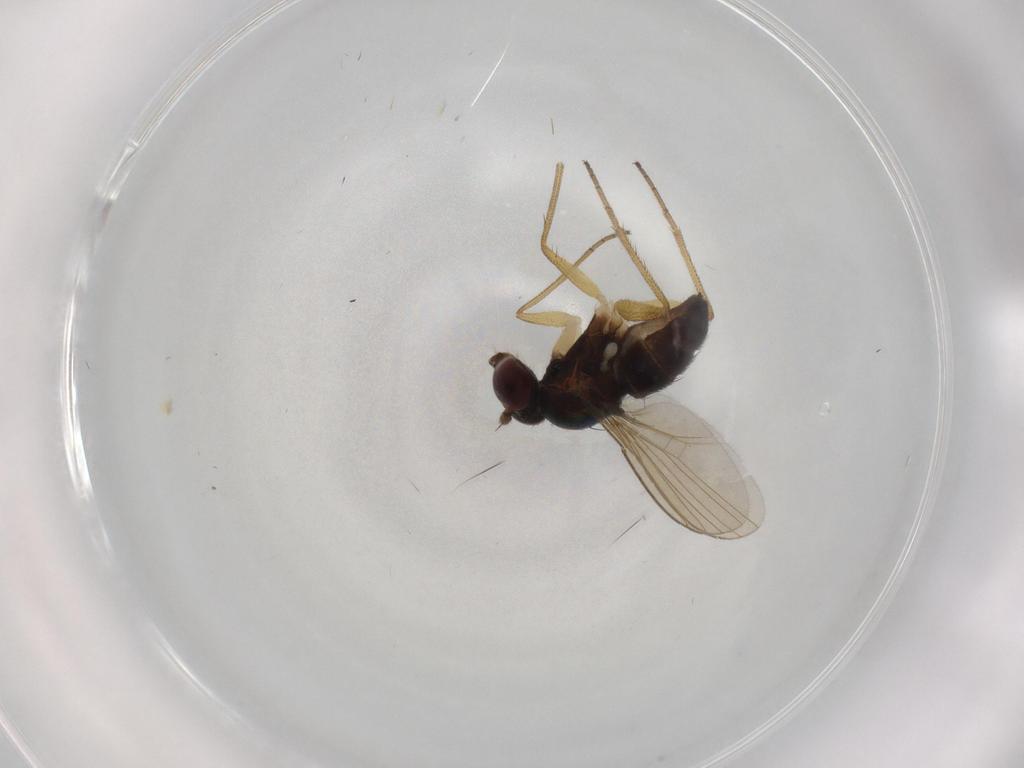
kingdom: Animalia
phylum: Arthropoda
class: Insecta
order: Diptera
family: Dolichopodidae
